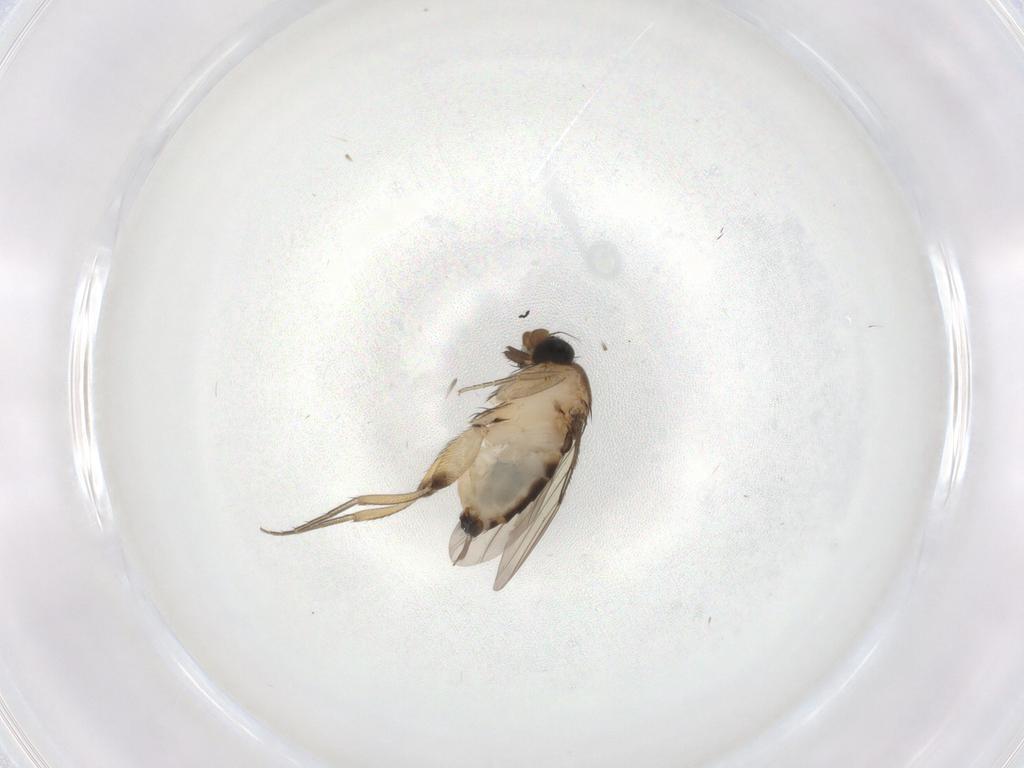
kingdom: Animalia
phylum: Arthropoda
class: Insecta
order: Diptera
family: Phoridae
